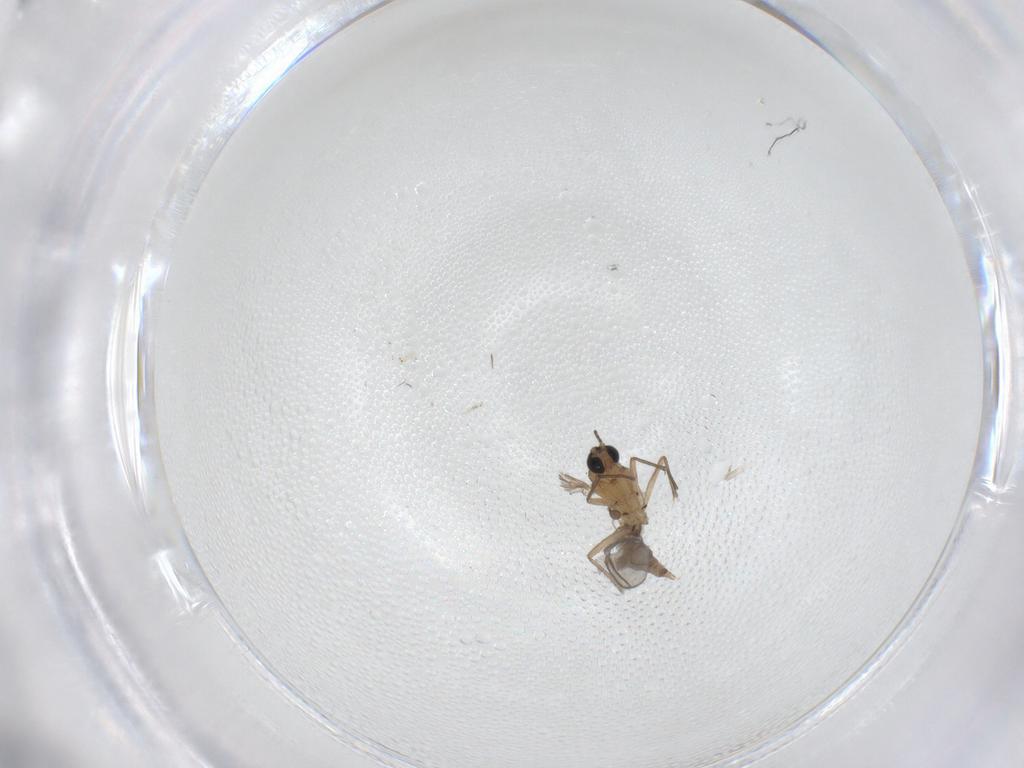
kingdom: Animalia
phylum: Arthropoda
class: Insecta
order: Diptera
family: Sciaridae
